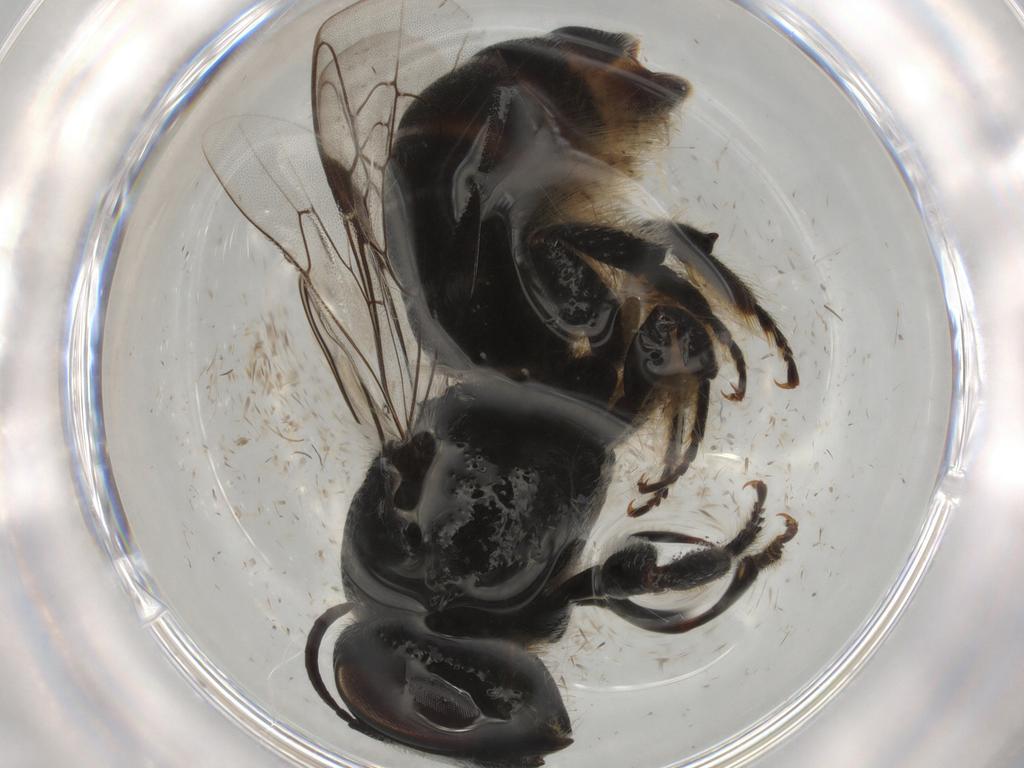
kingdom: Animalia
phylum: Arthropoda
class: Insecta
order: Hymenoptera
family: Megachilidae
